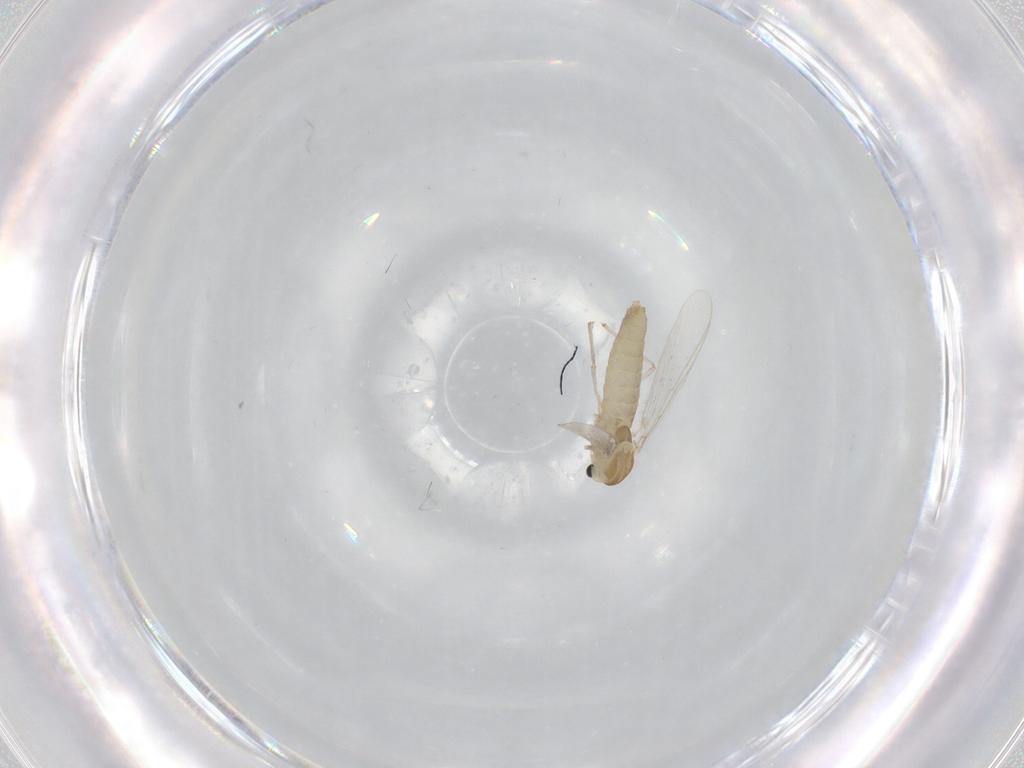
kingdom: Animalia
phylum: Arthropoda
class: Insecta
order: Diptera
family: Chironomidae
